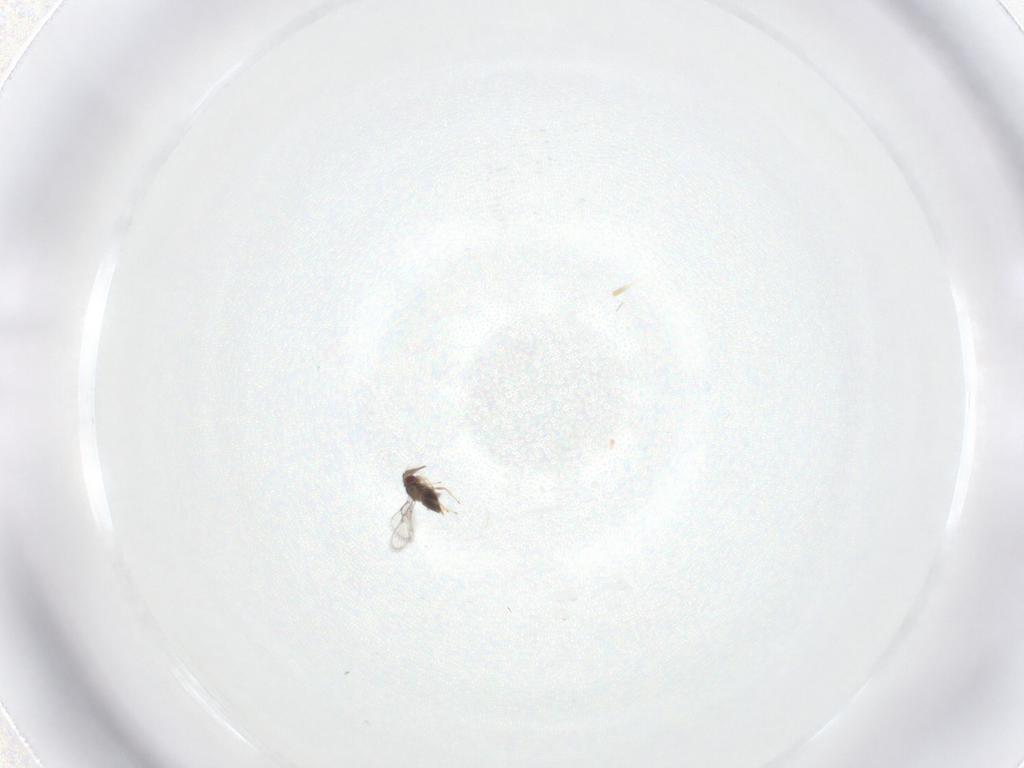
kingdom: Animalia
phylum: Arthropoda
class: Insecta
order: Hymenoptera
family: Trichogrammatidae
